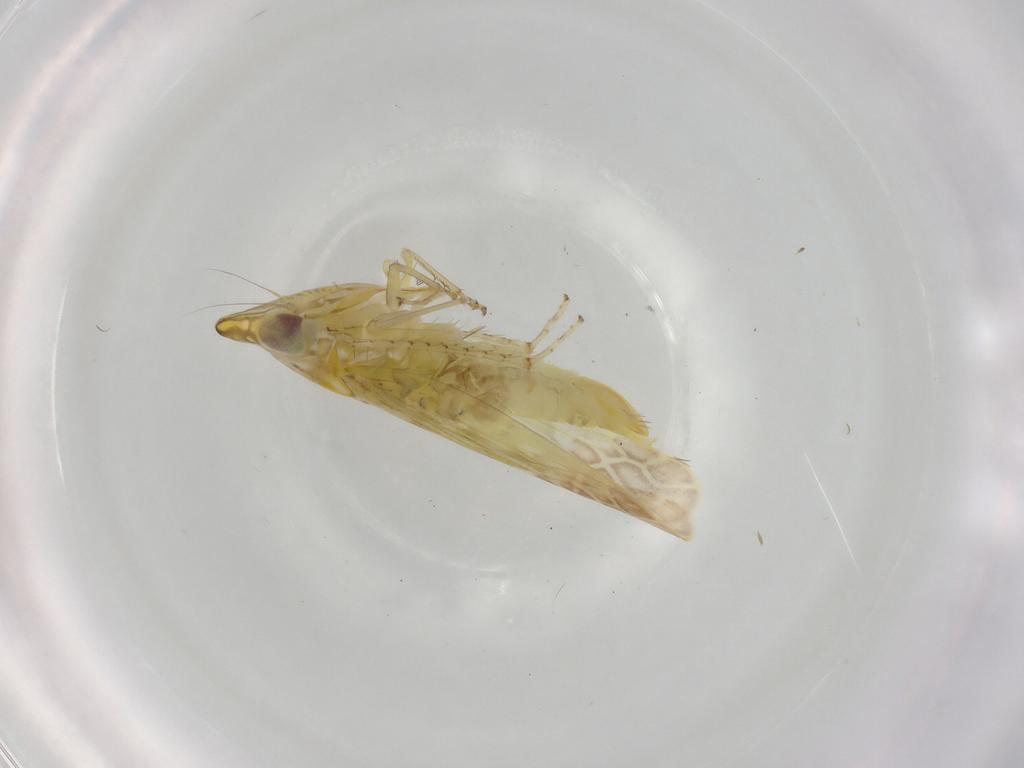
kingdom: Animalia
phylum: Arthropoda
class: Insecta
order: Hemiptera
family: Cicadellidae
